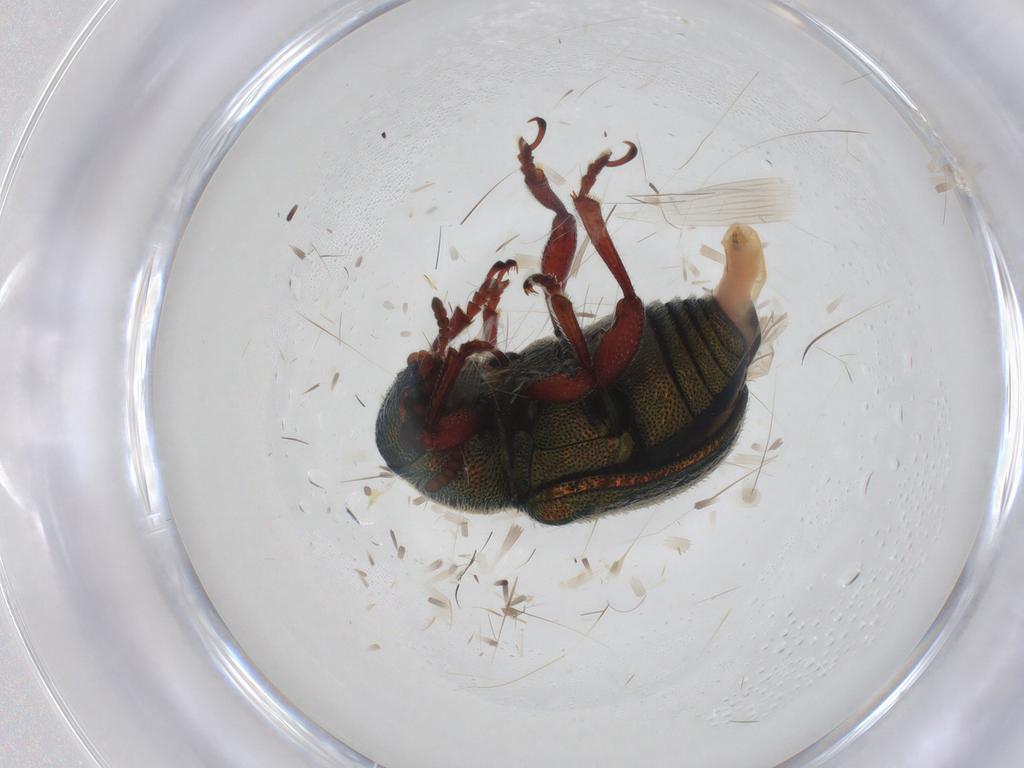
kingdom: Animalia
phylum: Arthropoda
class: Insecta
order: Coleoptera
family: Chrysomelidae
